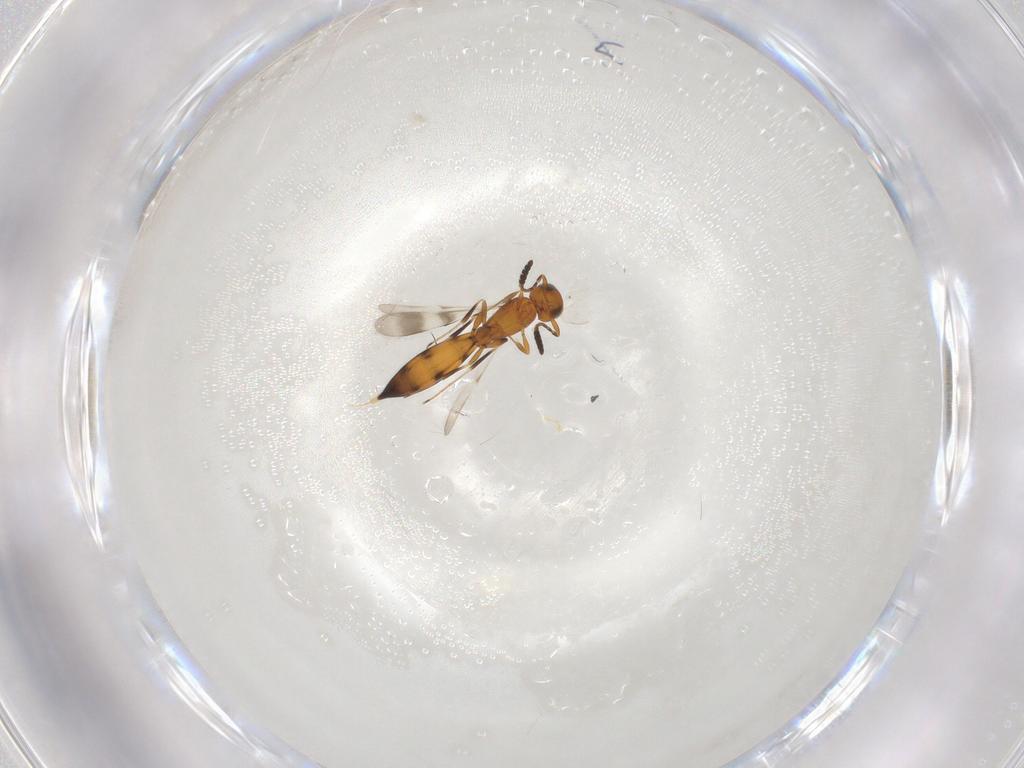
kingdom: Animalia
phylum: Arthropoda
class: Insecta
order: Hymenoptera
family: Scelionidae
